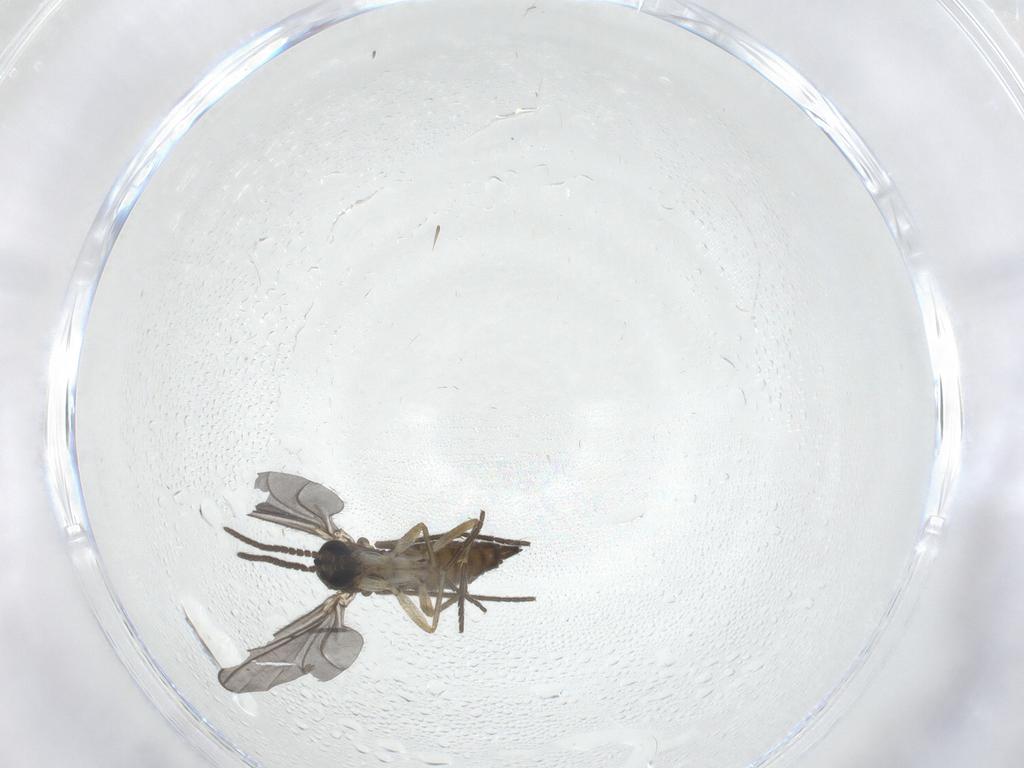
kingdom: Animalia
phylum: Arthropoda
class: Insecta
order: Diptera
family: Sciaridae
